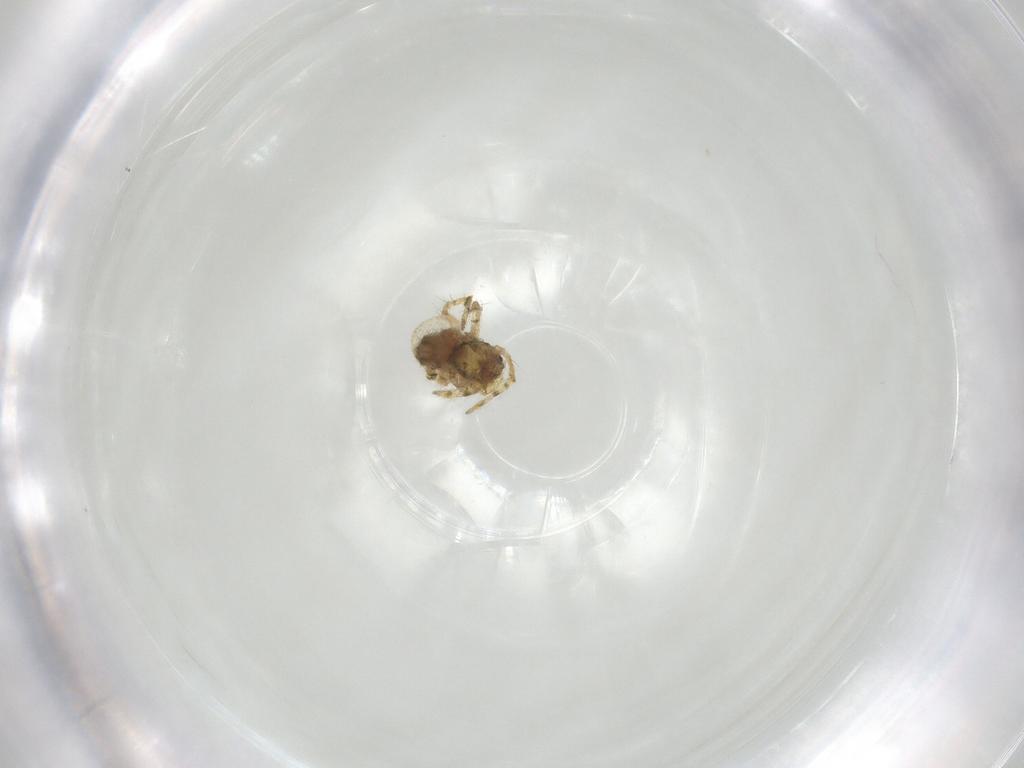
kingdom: Animalia
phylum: Arthropoda
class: Arachnida
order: Araneae
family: Theridiidae
